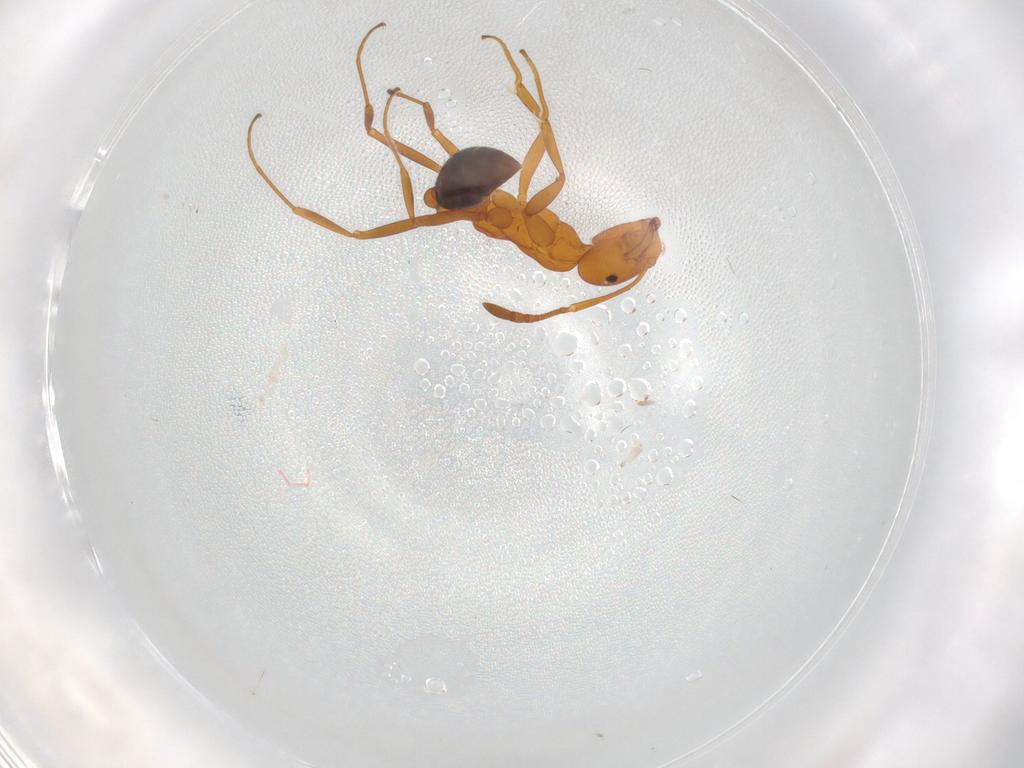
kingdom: Animalia
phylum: Arthropoda
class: Insecta
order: Hymenoptera
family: Formicidae
